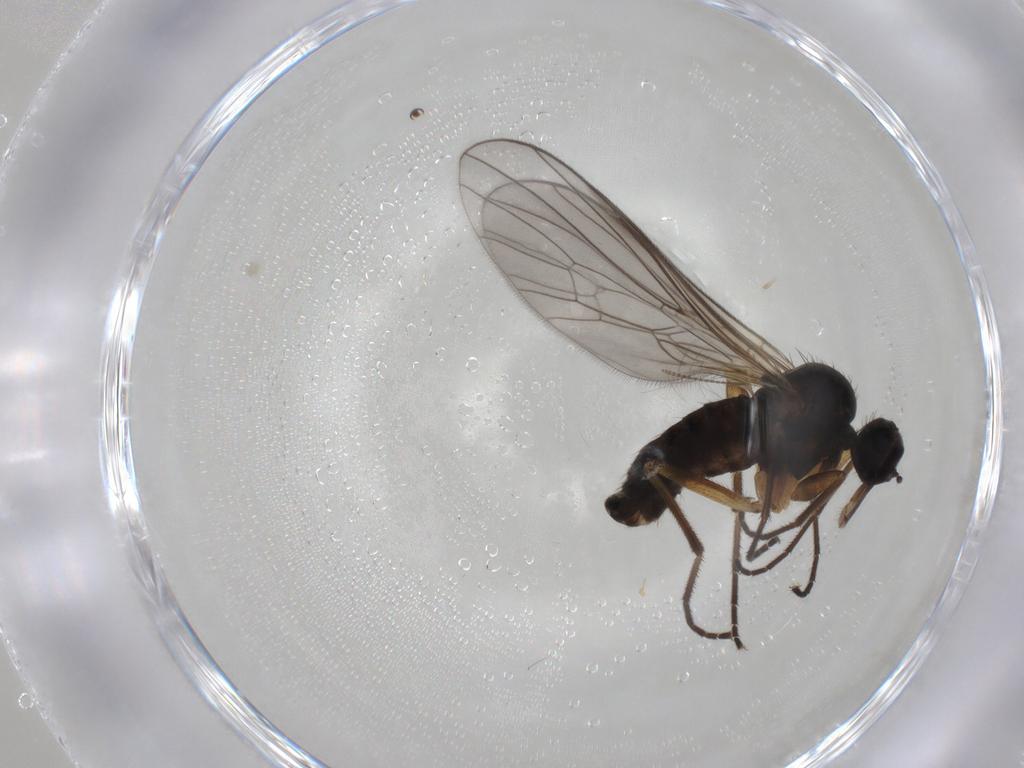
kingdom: Animalia
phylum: Arthropoda
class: Insecta
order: Diptera
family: Empididae
